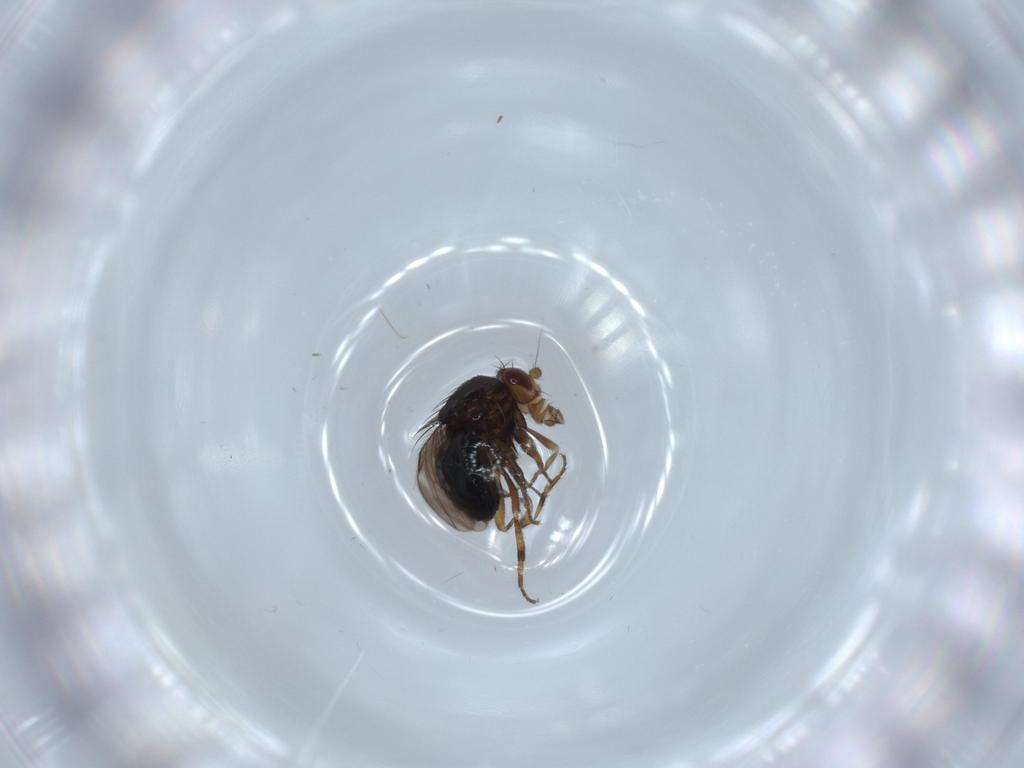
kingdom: Animalia
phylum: Arthropoda
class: Insecta
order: Diptera
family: Sphaeroceridae
